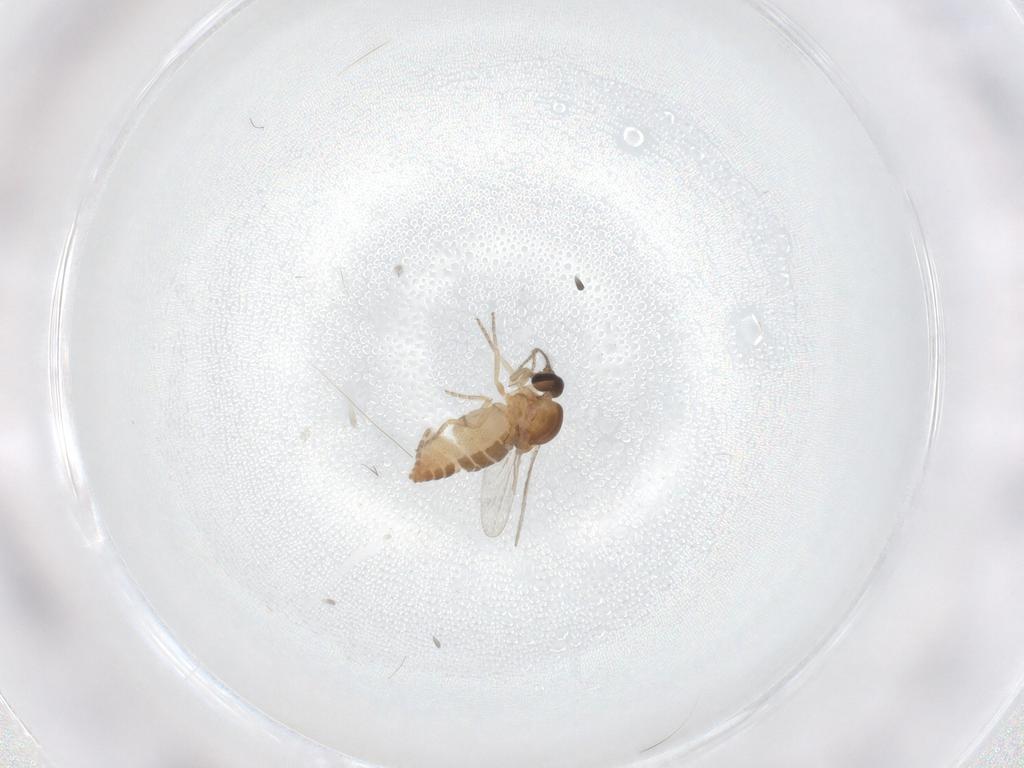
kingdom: Animalia
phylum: Arthropoda
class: Insecta
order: Diptera
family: Ceratopogonidae
